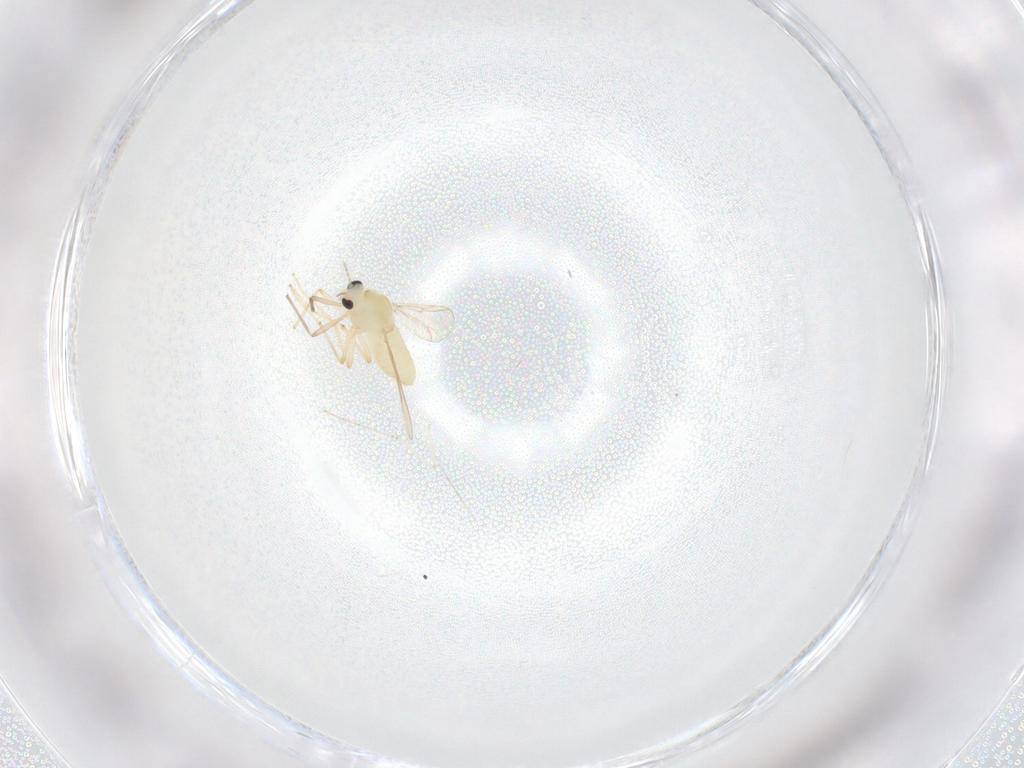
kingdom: Animalia
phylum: Arthropoda
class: Insecta
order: Diptera
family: Chironomidae
